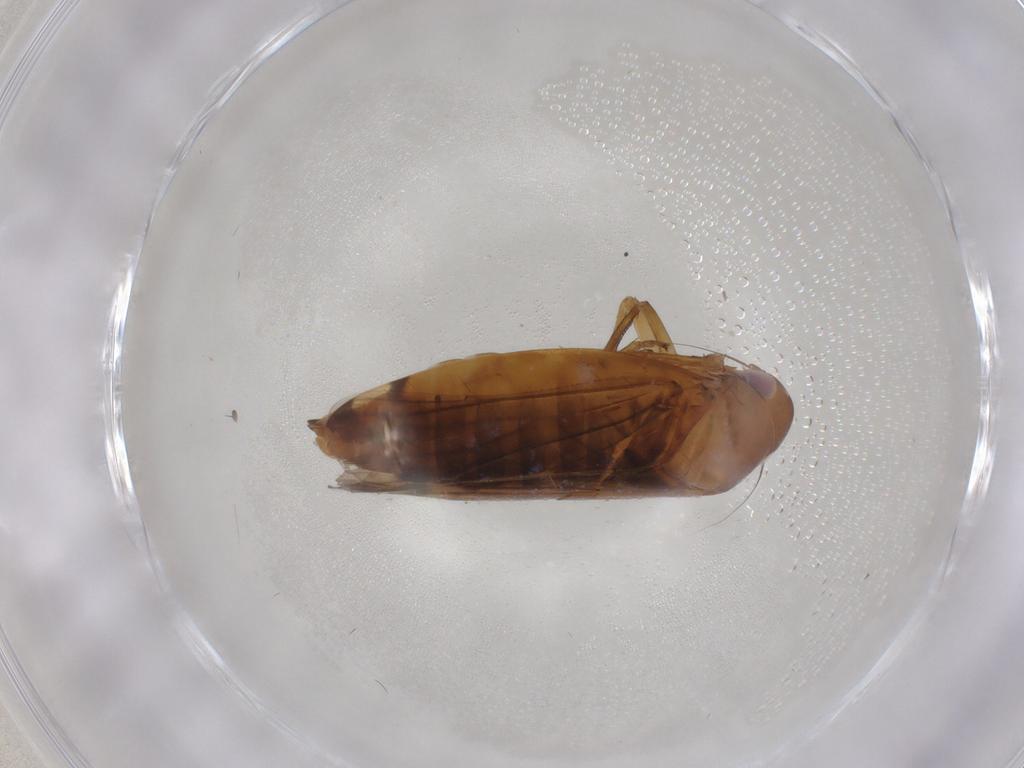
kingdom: Animalia
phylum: Arthropoda
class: Insecta
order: Hemiptera
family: Cicadellidae
